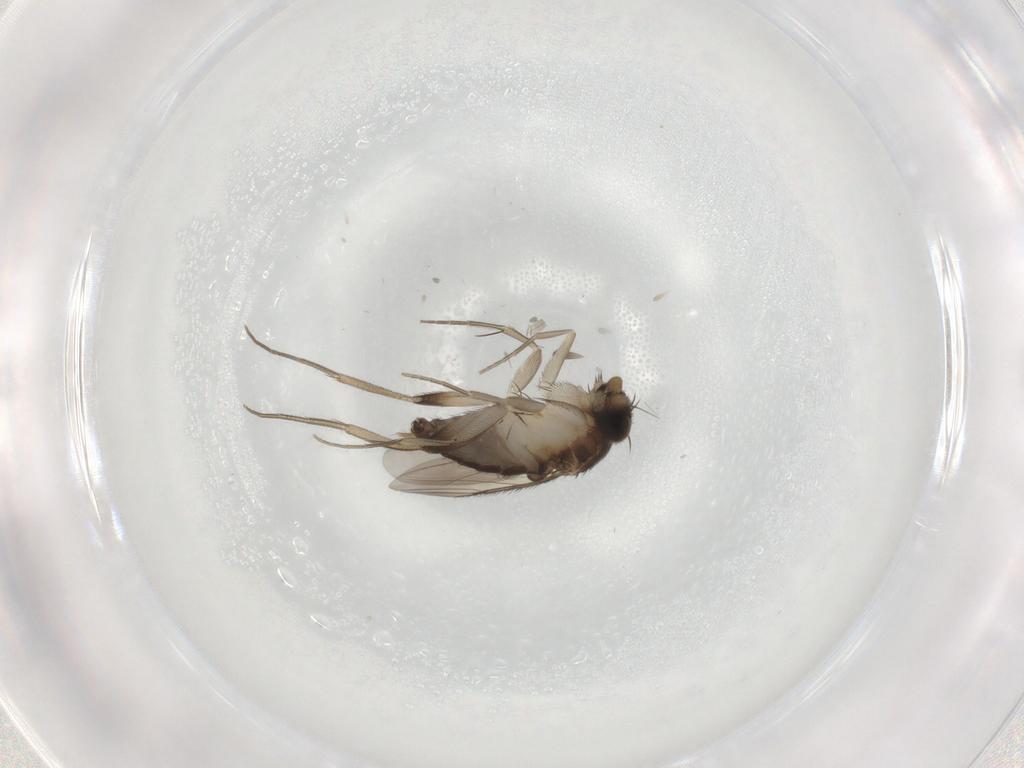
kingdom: Animalia
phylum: Arthropoda
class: Insecta
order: Diptera
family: Phoridae
